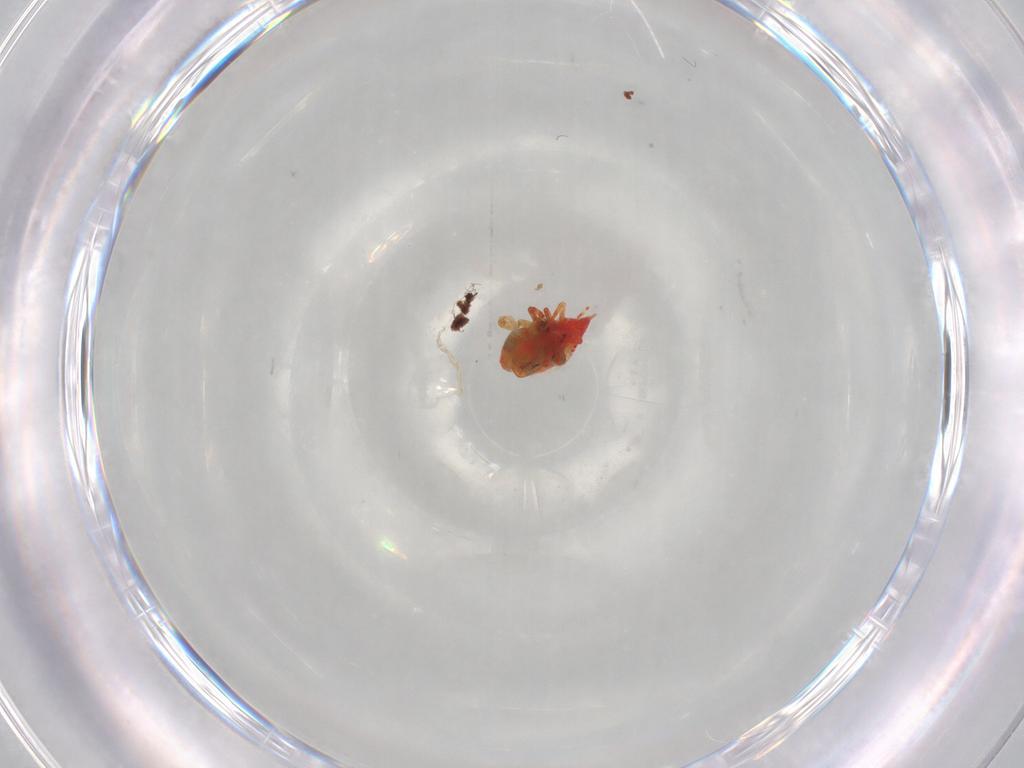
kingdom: Animalia
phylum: Arthropoda
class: Arachnida
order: Trombidiformes
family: Stigmaeidae
